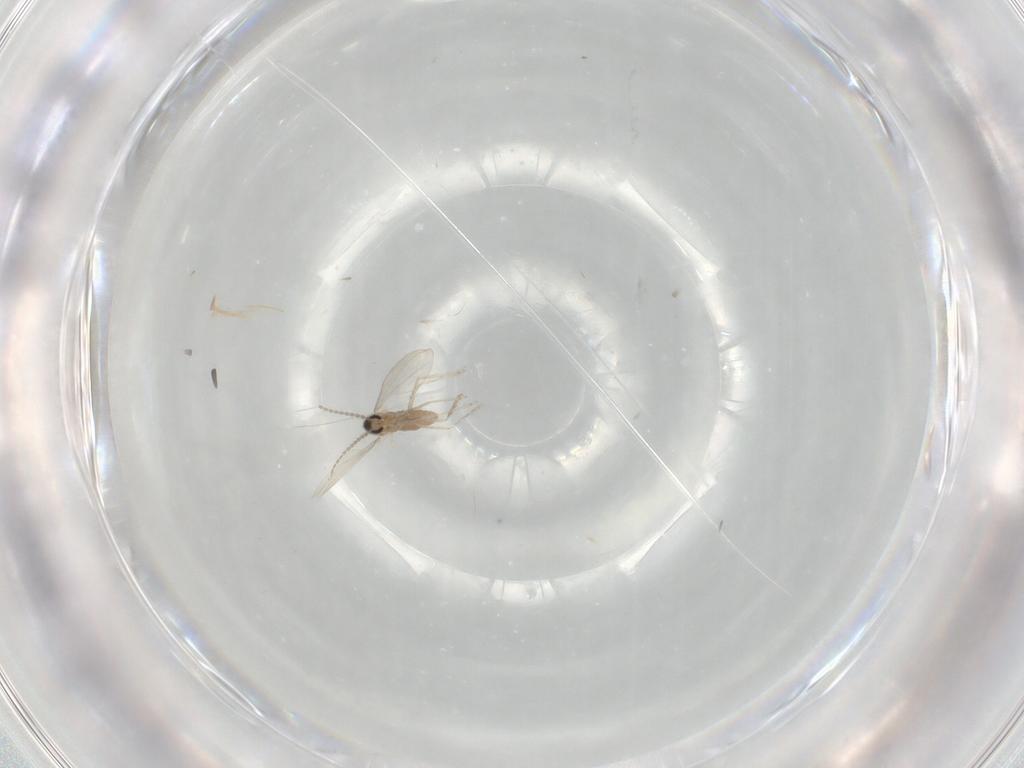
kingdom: Animalia
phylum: Arthropoda
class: Insecta
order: Diptera
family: Cecidomyiidae
